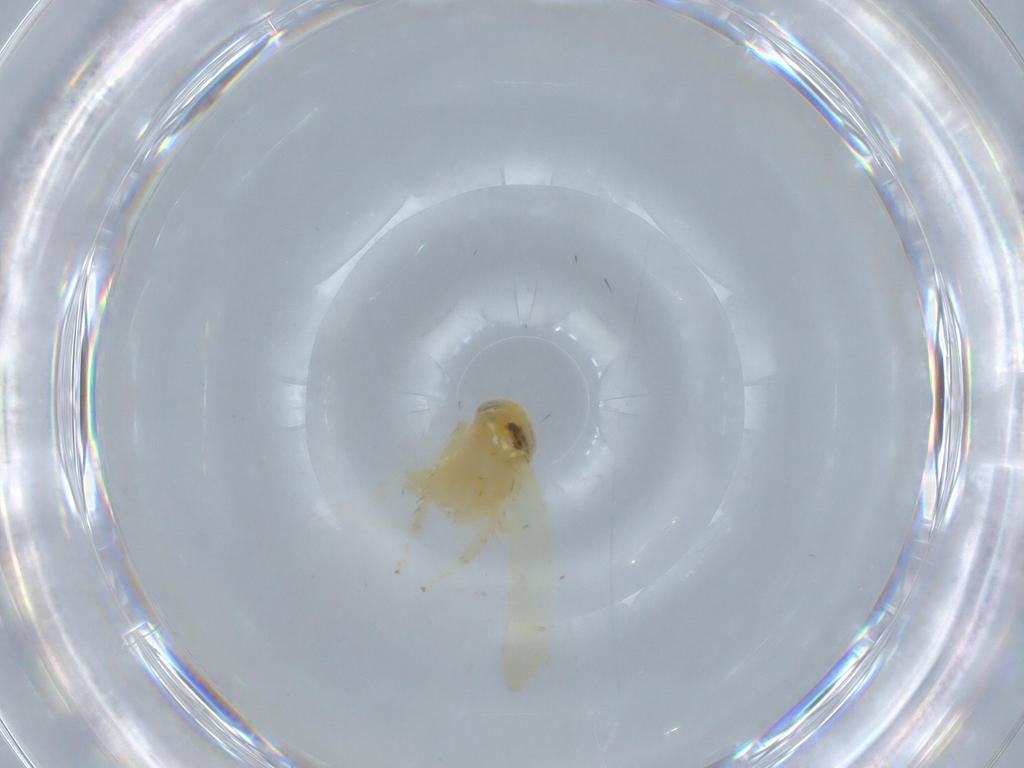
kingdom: Animalia
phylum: Arthropoda
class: Insecta
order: Hemiptera
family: Cicadellidae
